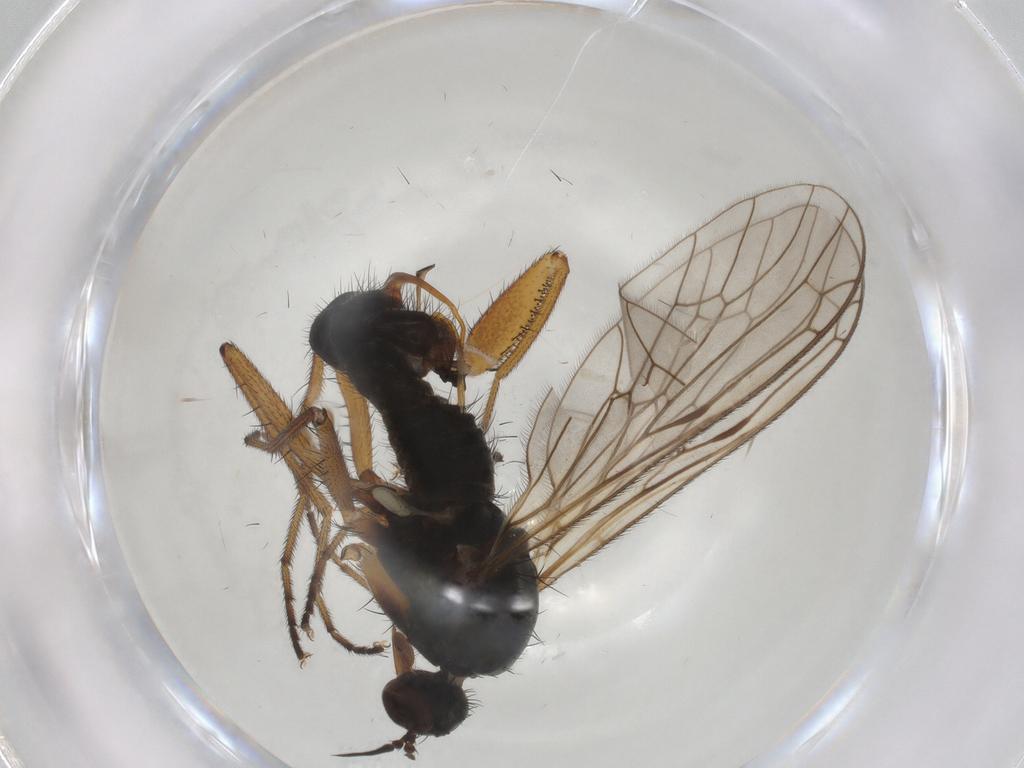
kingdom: Animalia
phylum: Arthropoda
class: Insecta
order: Diptera
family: Empididae
